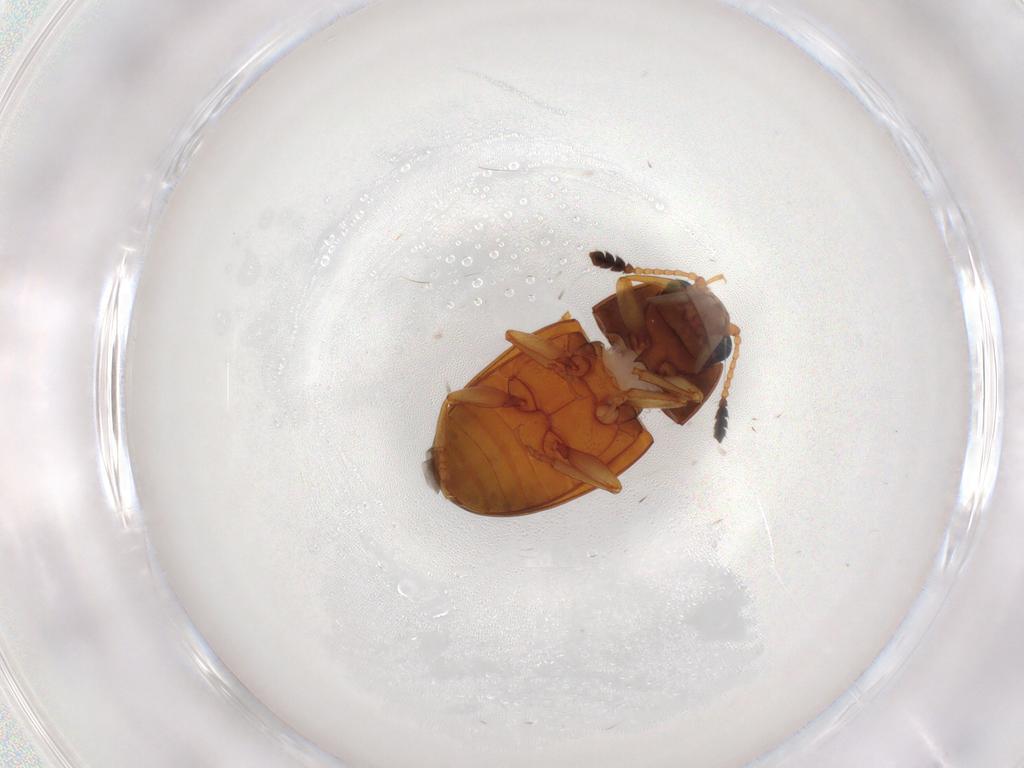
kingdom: Animalia
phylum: Arthropoda
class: Insecta
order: Coleoptera
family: Erotylidae
